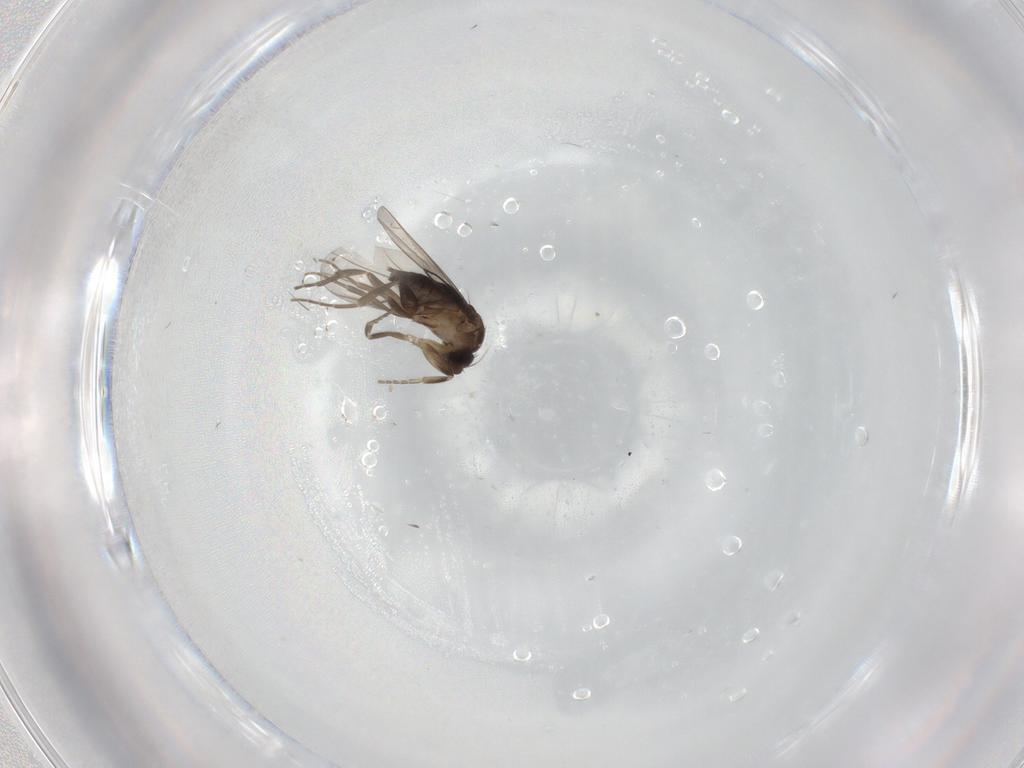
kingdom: Animalia
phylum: Arthropoda
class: Insecta
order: Diptera
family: Phoridae
